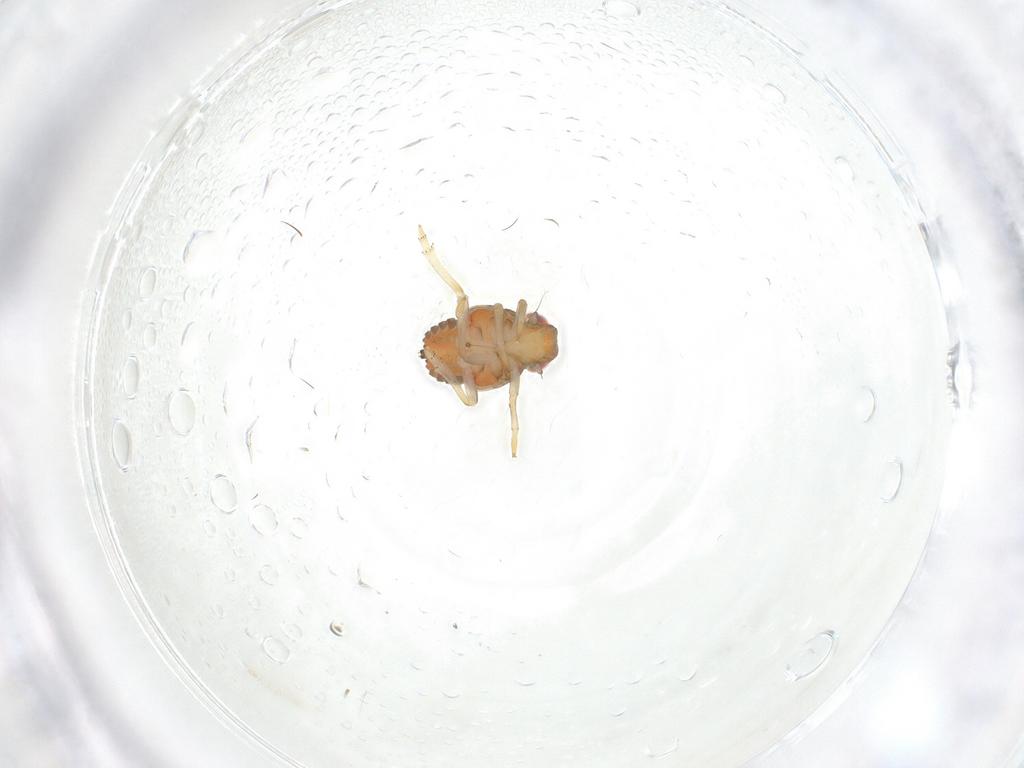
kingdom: Animalia
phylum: Arthropoda
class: Insecta
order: Hemiptera
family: Issidae
